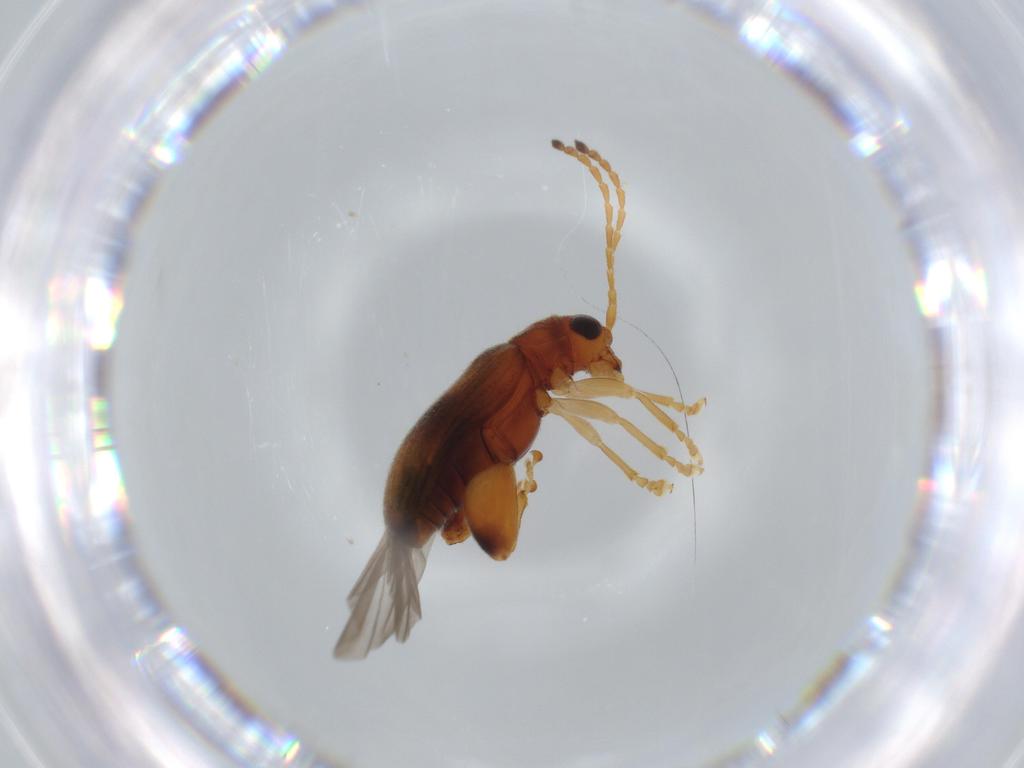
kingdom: Animalia
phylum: Arthropoda
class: Insecta
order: Coleoptera
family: Chrysomelidae
